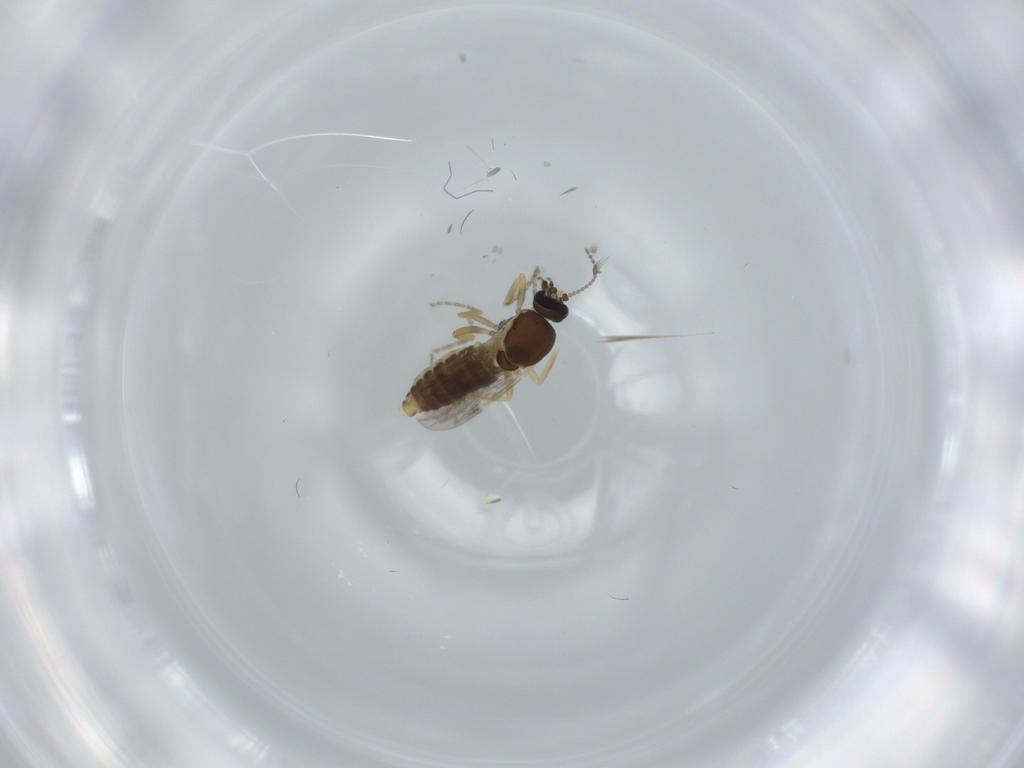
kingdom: Animalia
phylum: Arthropoda
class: Insecta
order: Diptera
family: Ceratopogonidae
